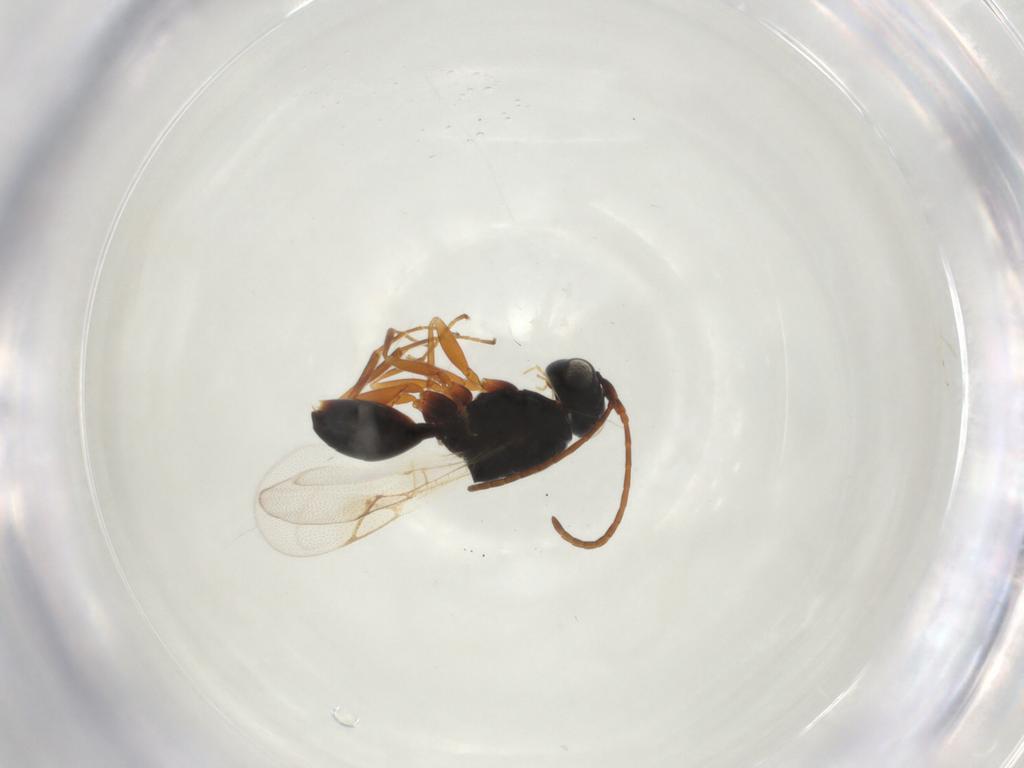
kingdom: Animalia
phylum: Arthropoda
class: Insecta
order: Hymenoptera
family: Figitidae
